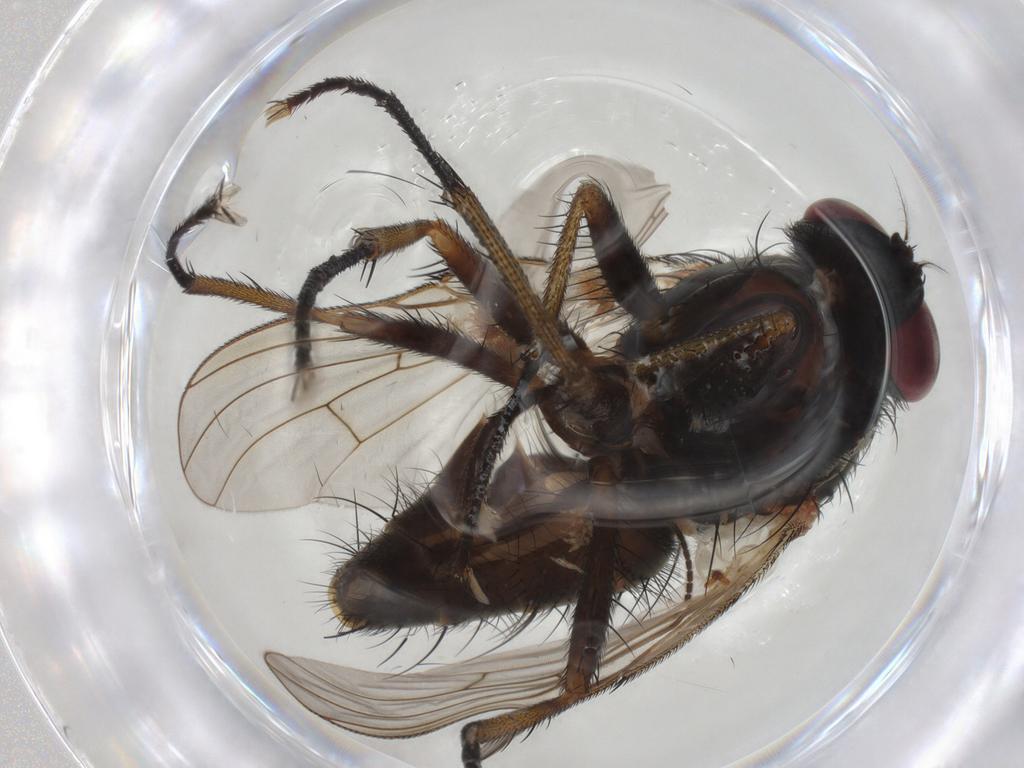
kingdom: Animalia
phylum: Arthropoda
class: Insecta
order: Diptera
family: Muscidae
